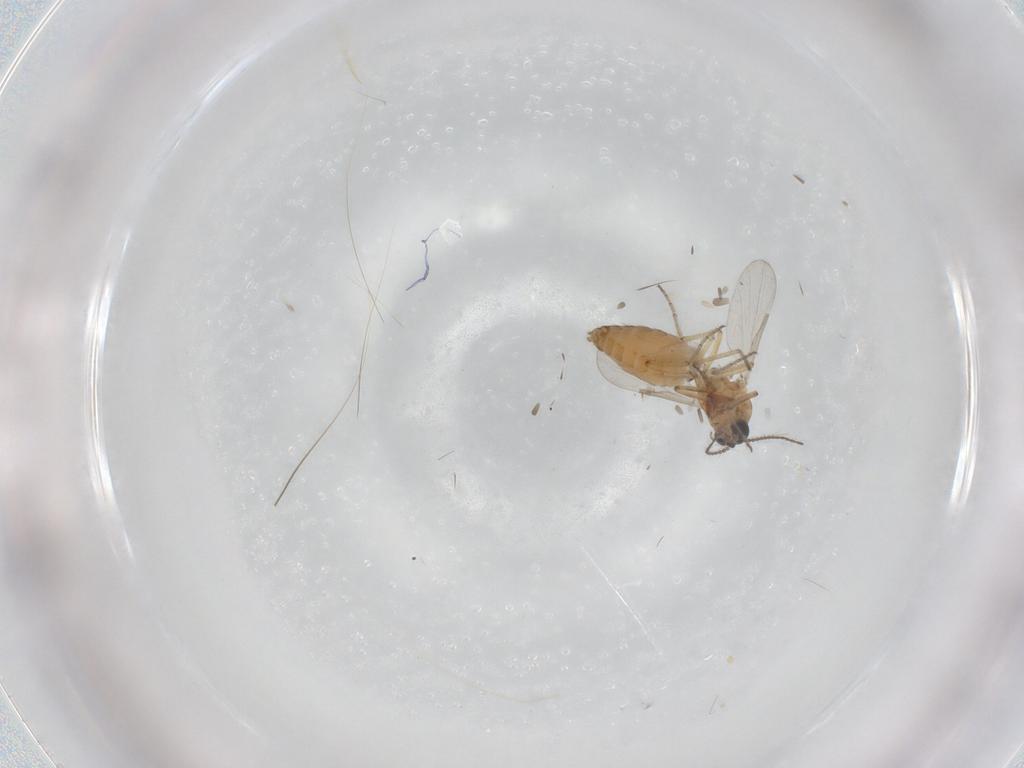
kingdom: Animalia
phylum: Arthropoda
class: Insecta
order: Diptera
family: Ceratopogonidae
